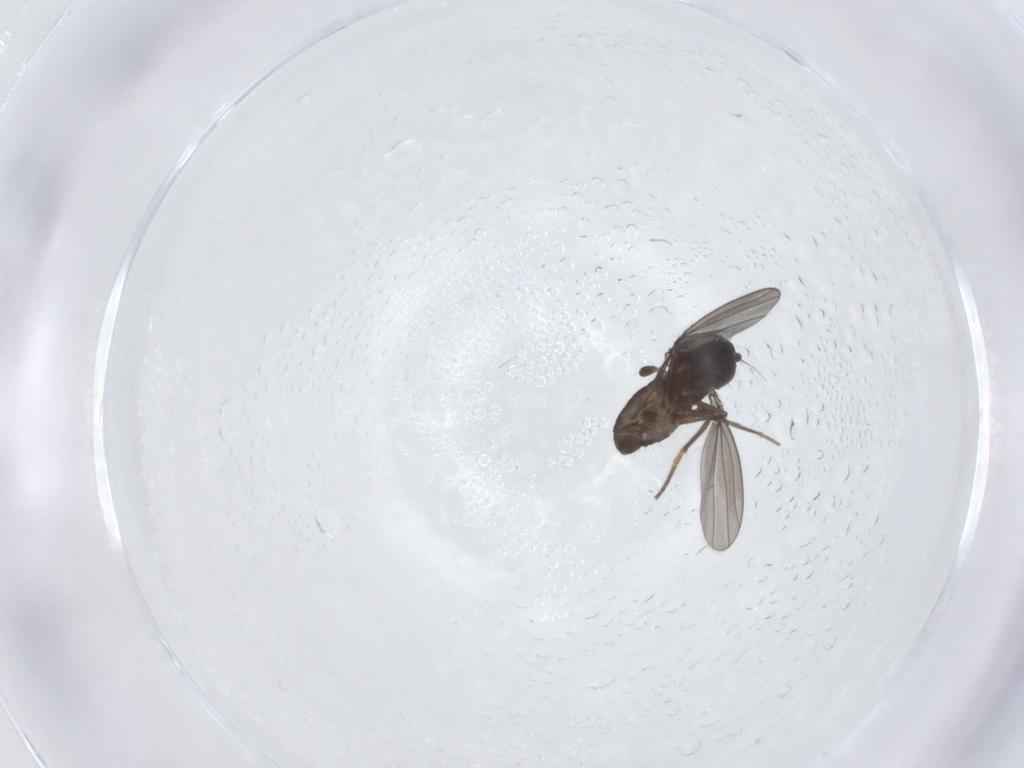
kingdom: Animalia
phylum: Arthropoda
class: Insecta
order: Diptera
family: Dolichopodidae
